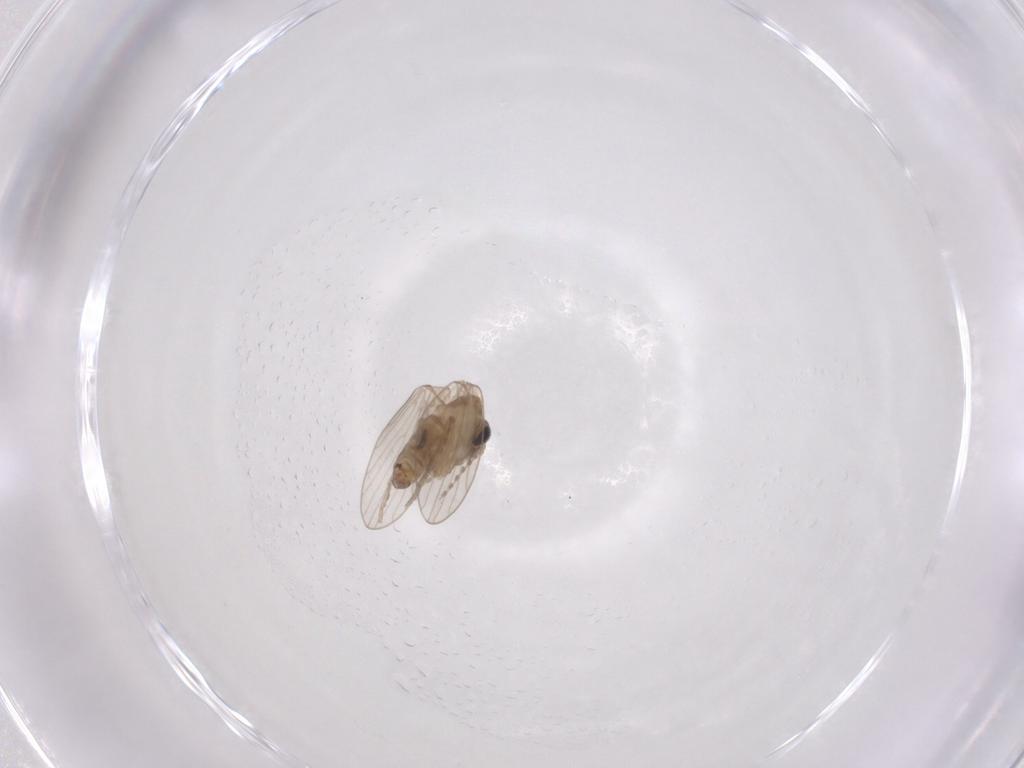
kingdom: Animalia
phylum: Arthropoda
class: Insecta
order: Diptera
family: Psychodidae
